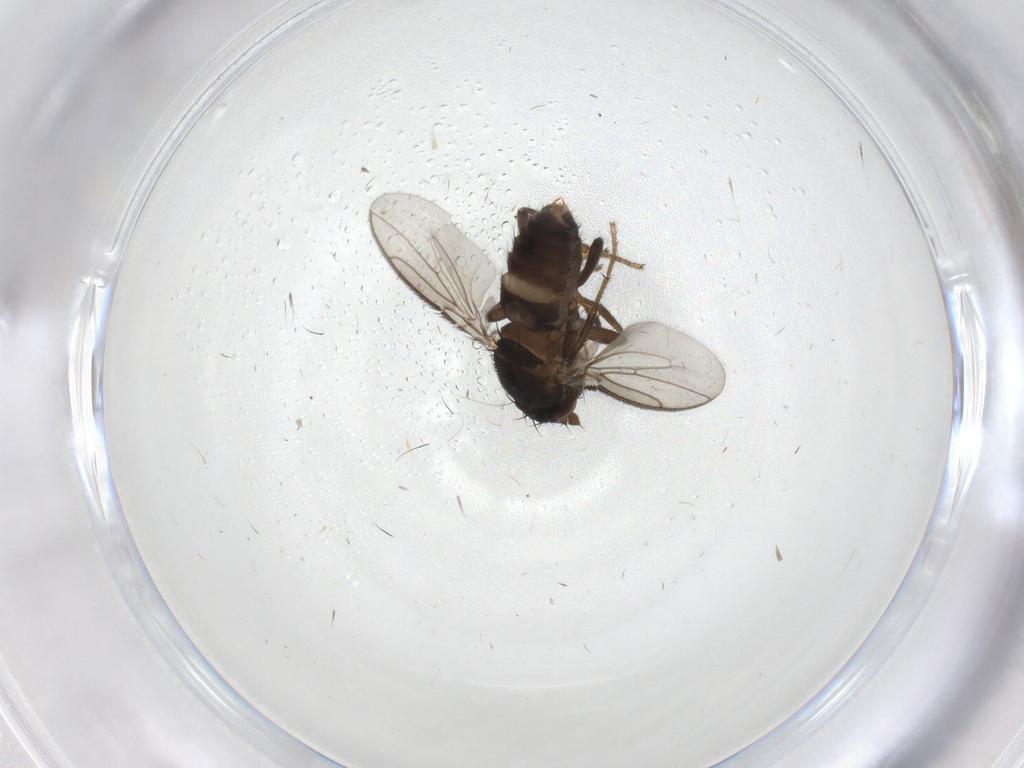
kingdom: Animalia
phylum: Arthropoda
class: Insecta
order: Diptera
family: Sphaeroceridae
